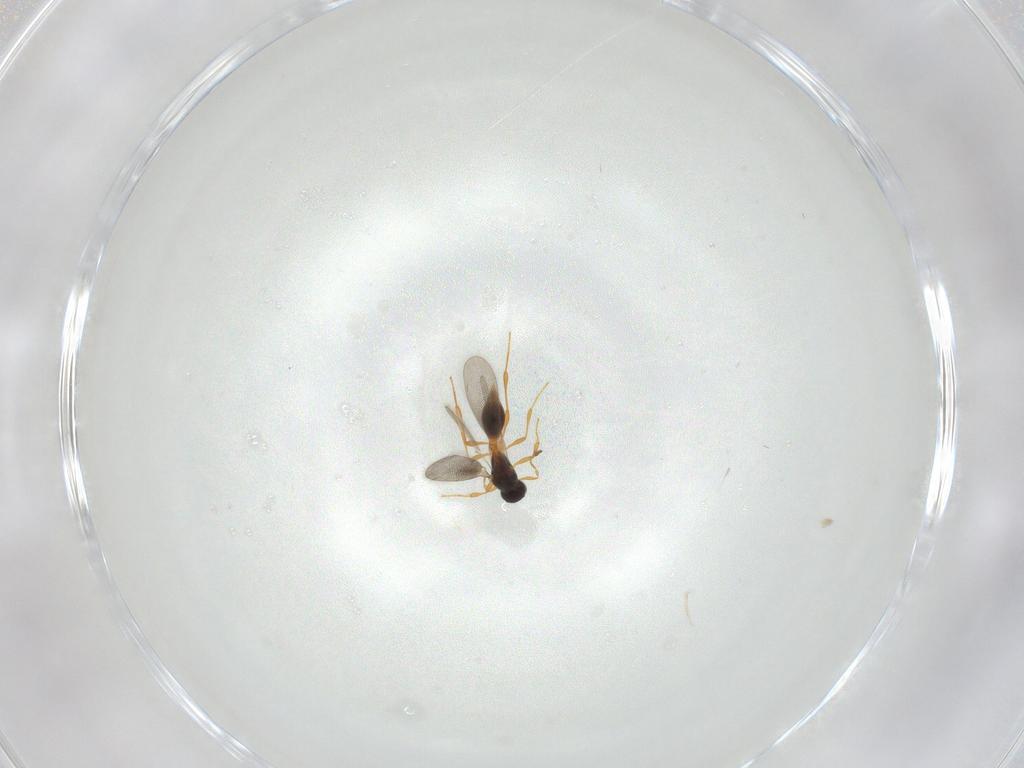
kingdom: Animalia
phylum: Arthropoda
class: Insecta
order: Hymenoptera
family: Platygastridae
